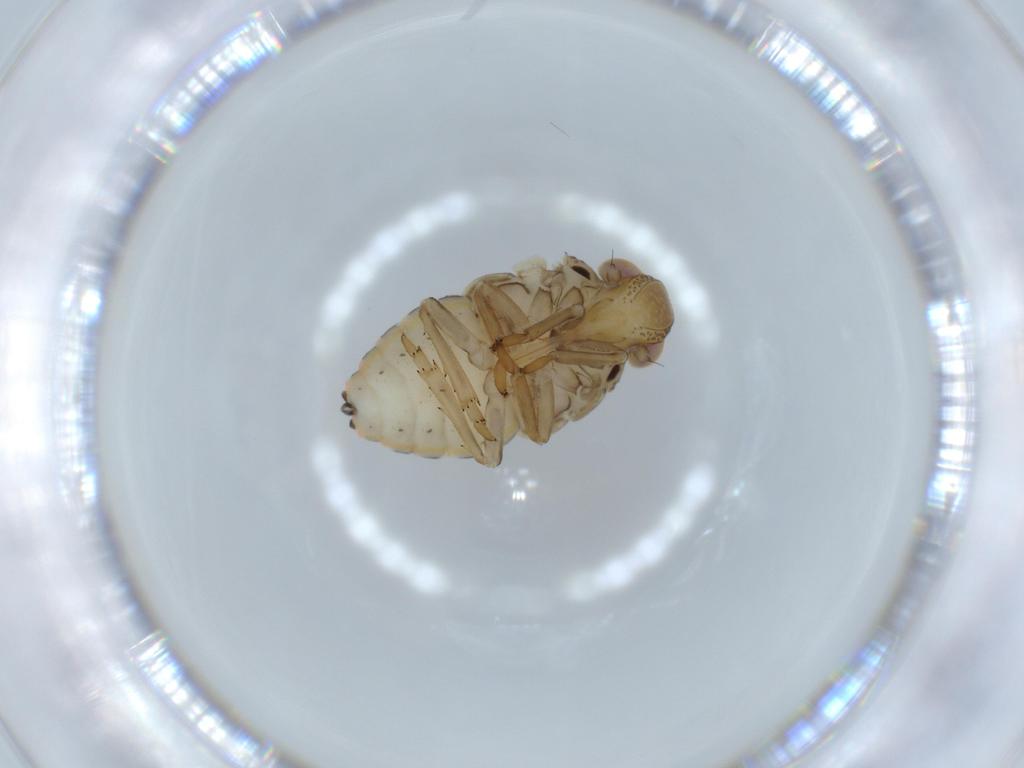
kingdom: Animalia
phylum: Arthropoda
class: Insecta
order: Hemiptera
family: Issidae
